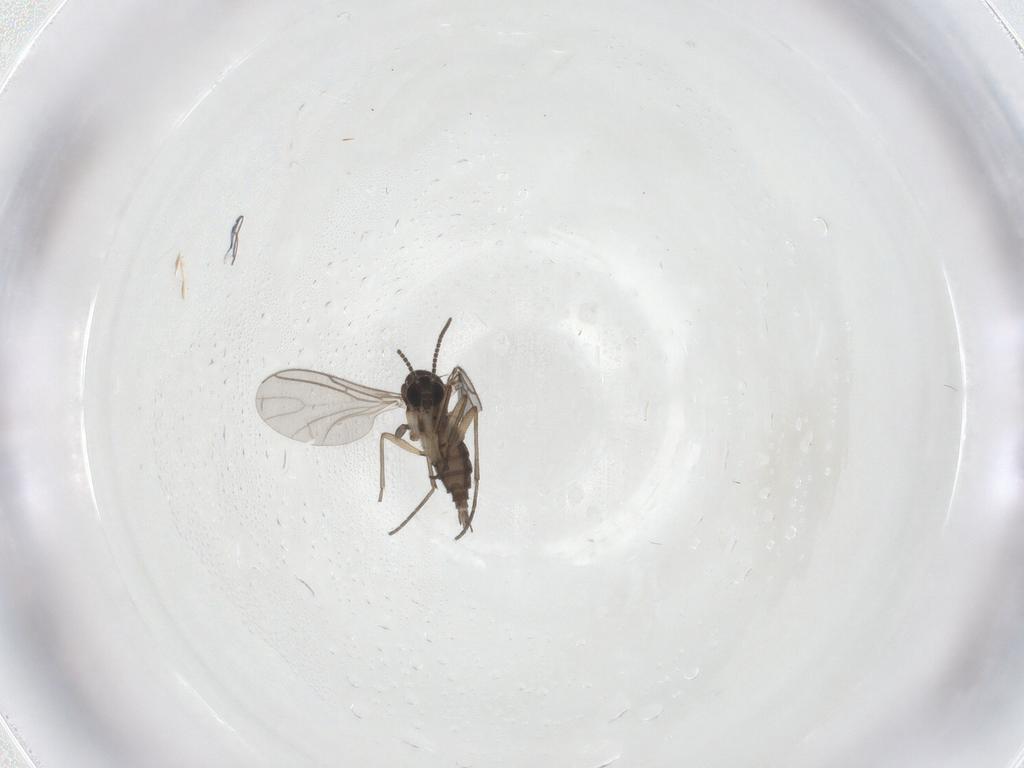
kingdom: Animalia
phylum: Arthropoda
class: Insecta
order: Diptera
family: Sciaridae
